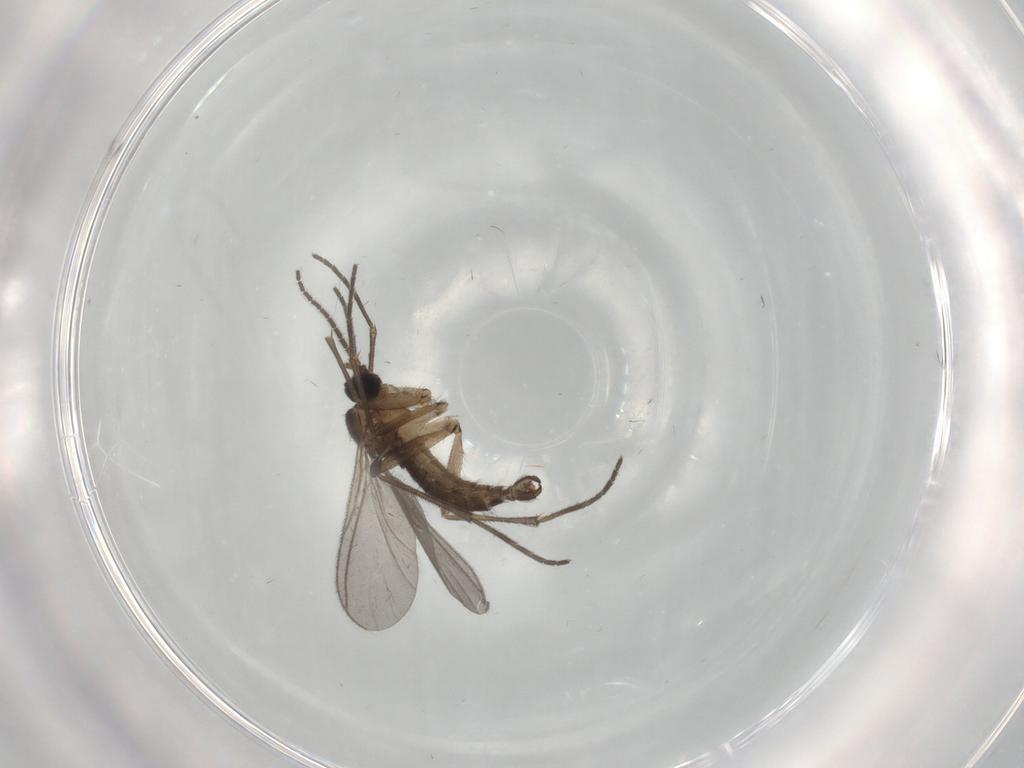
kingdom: Animalia
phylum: Arthropoda
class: Insecta
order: Diptera
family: Sciaridae
